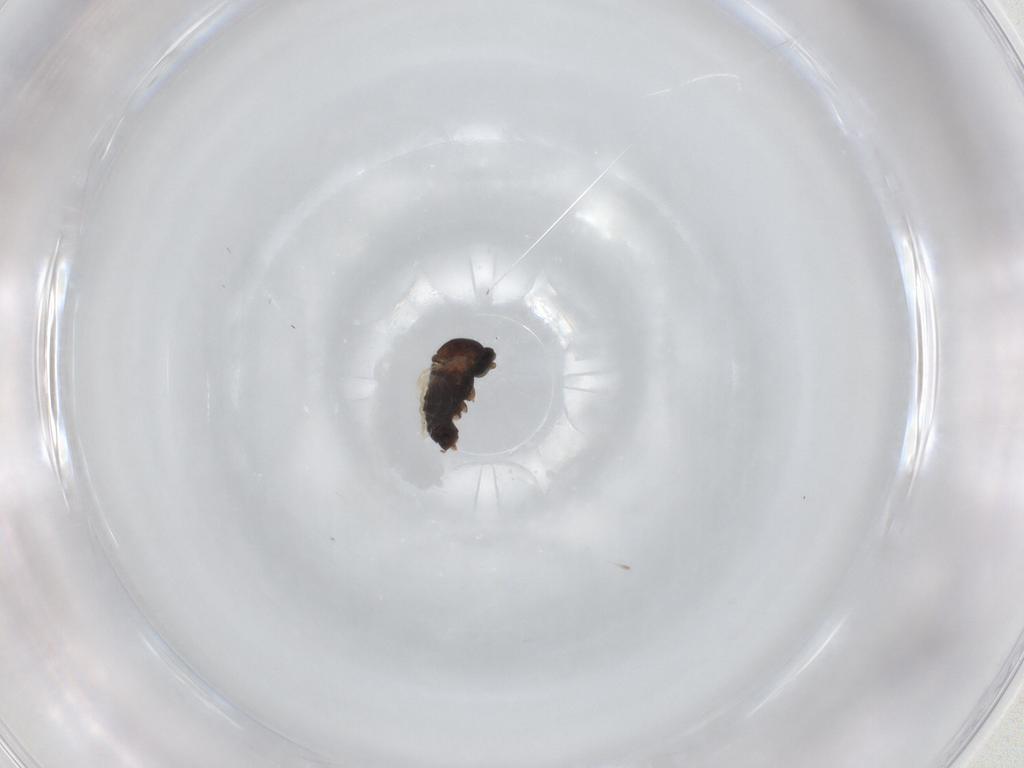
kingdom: Animalia
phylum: Arthropoda
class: Insecta
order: Diptera
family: Cecidomyiidae
